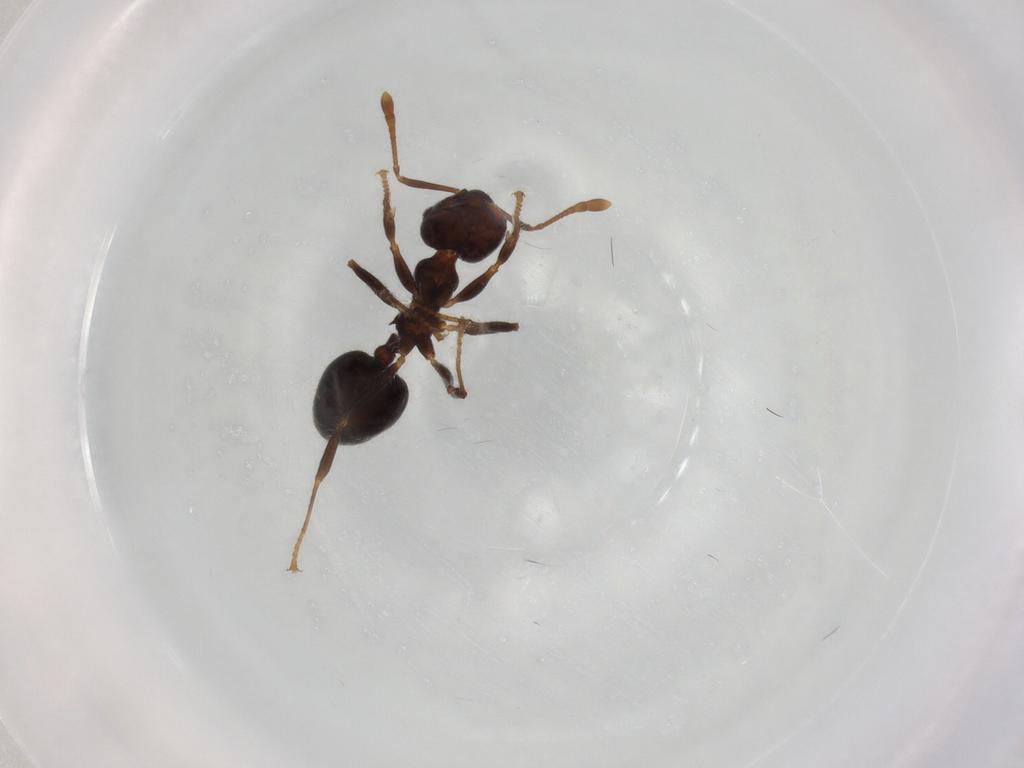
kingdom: Animalia
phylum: Arthropoda
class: Insecta
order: Hymenoptera
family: Formicidae
